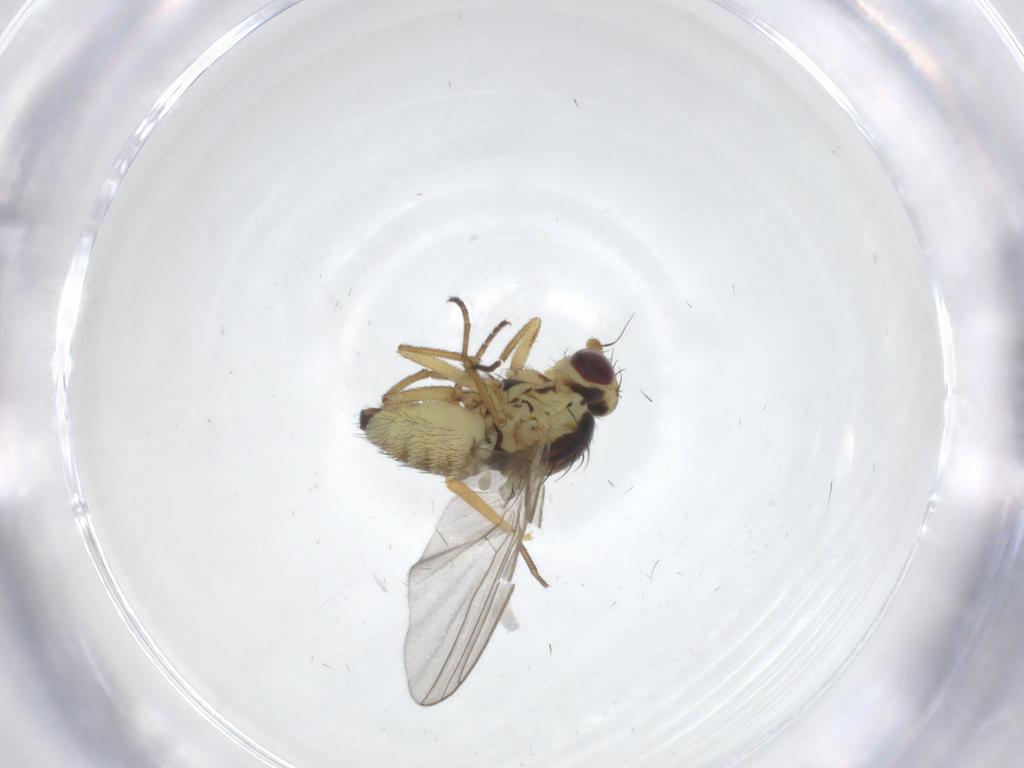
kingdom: Animalia
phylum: Arthropoda
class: Insecta
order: Diptera
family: Agromyzidae
